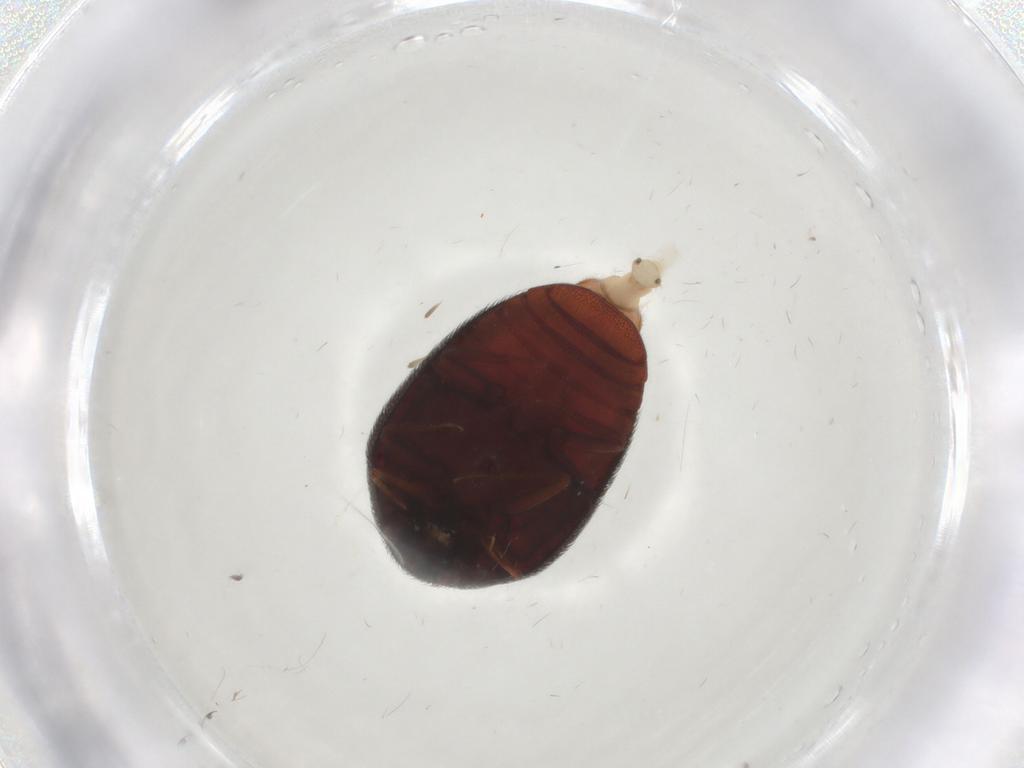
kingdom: Animalia
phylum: Arthropoda
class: Insecta
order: Coleoptera
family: Dermestidae
